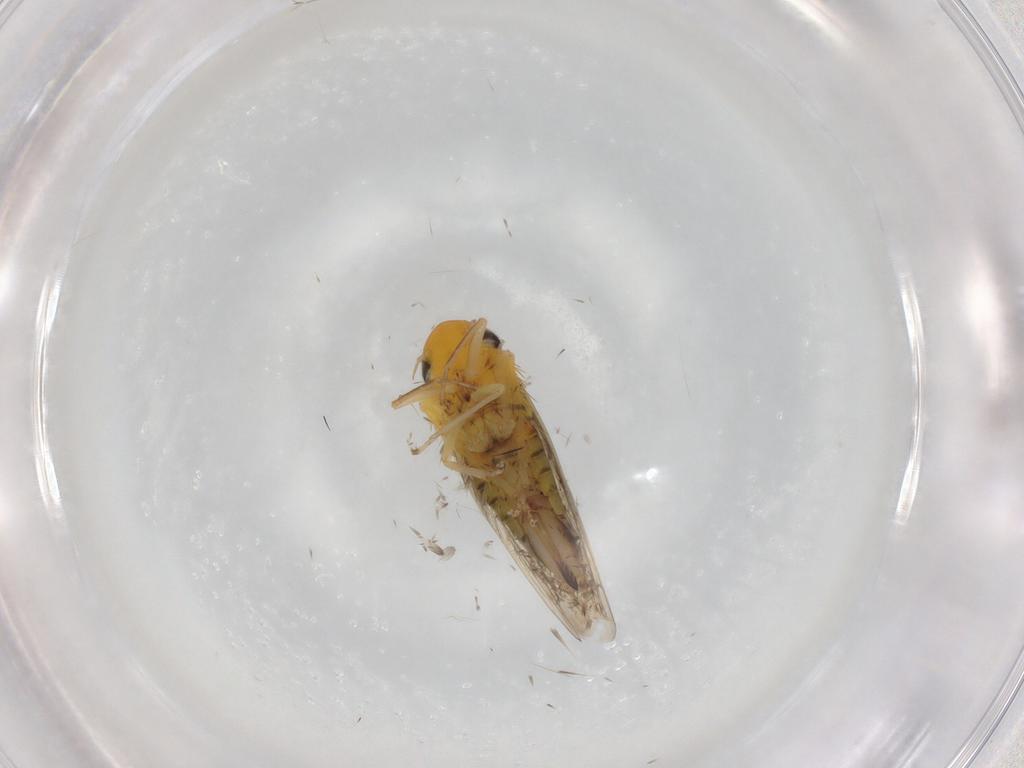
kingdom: Animalia
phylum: Arthropoda
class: Insecta
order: Hemiptera
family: Cicadellidae
